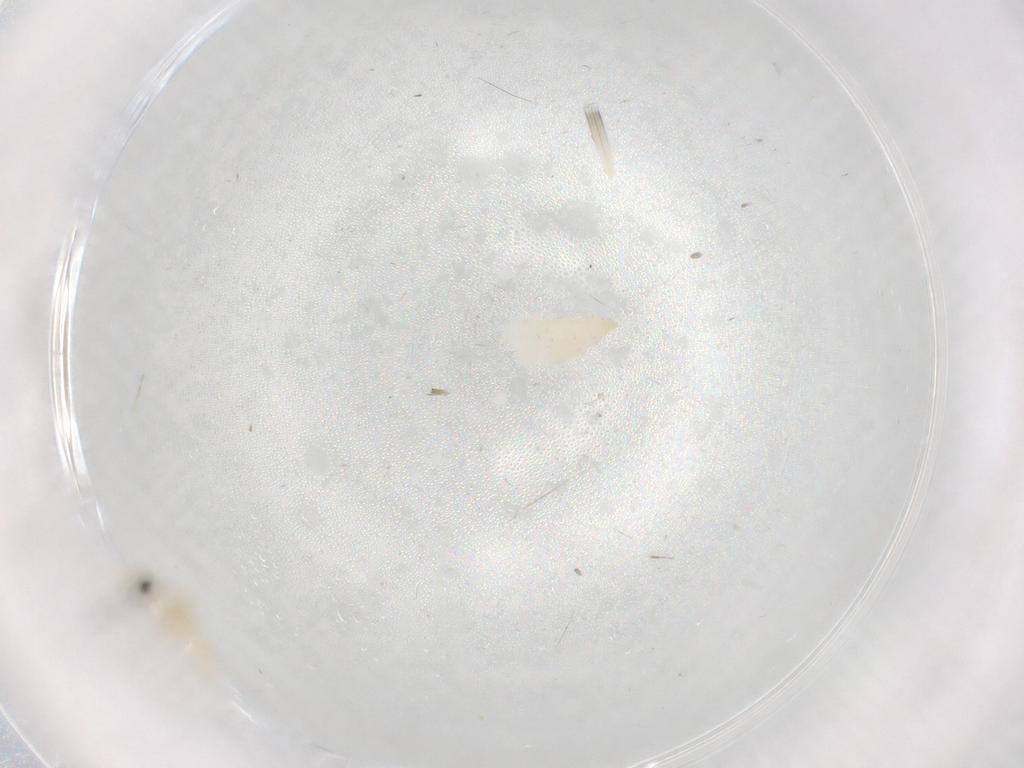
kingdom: Animalia
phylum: Arthropoda
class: Insecta
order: Diptera
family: Cecidomyiidae
